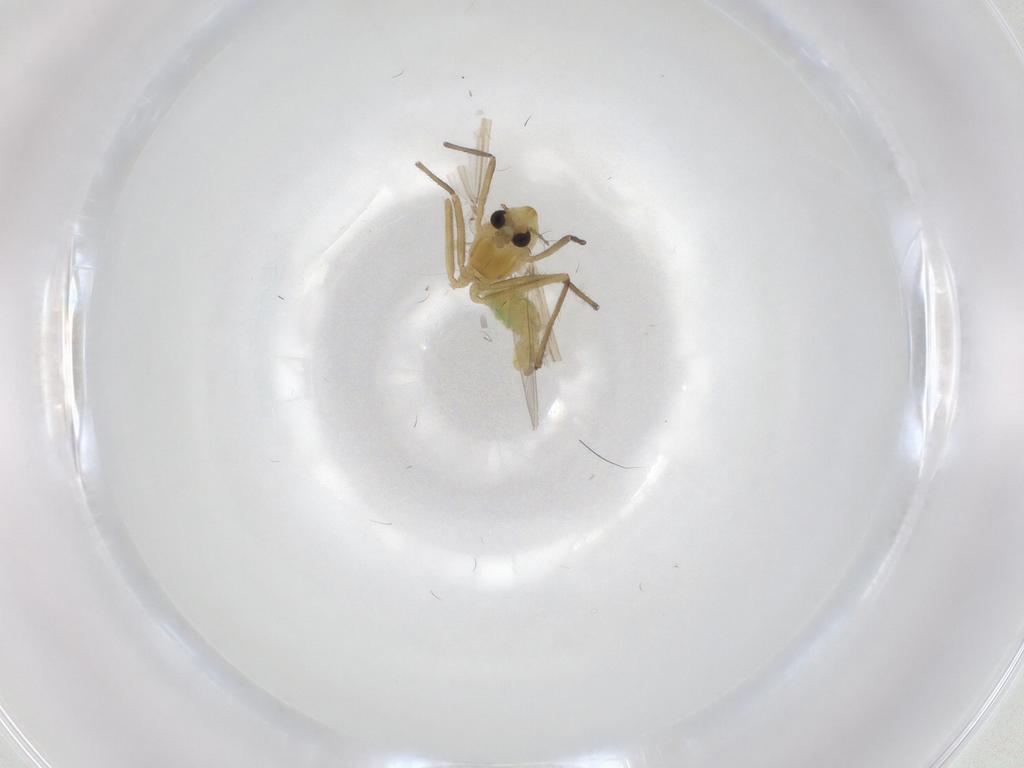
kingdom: Animalia
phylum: Arthropoda
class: Insecta
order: Diptera
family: Chironomidae
